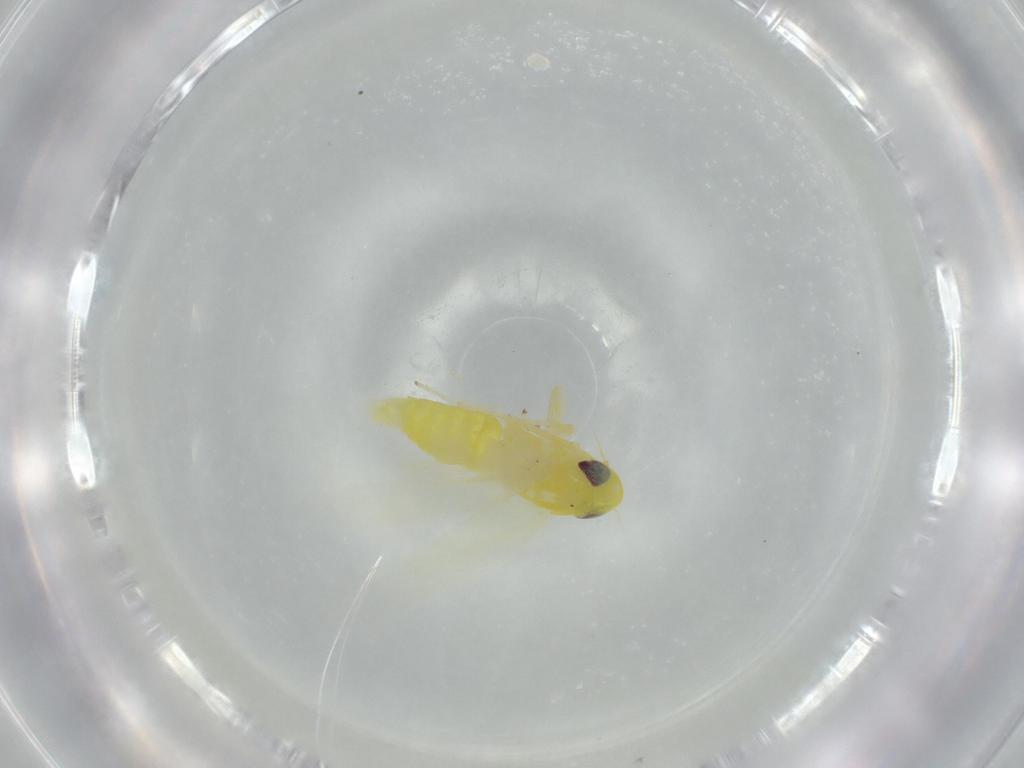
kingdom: Animalia
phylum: Arthropoda
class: Insecta
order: Hemiptera
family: Cicadellidae
